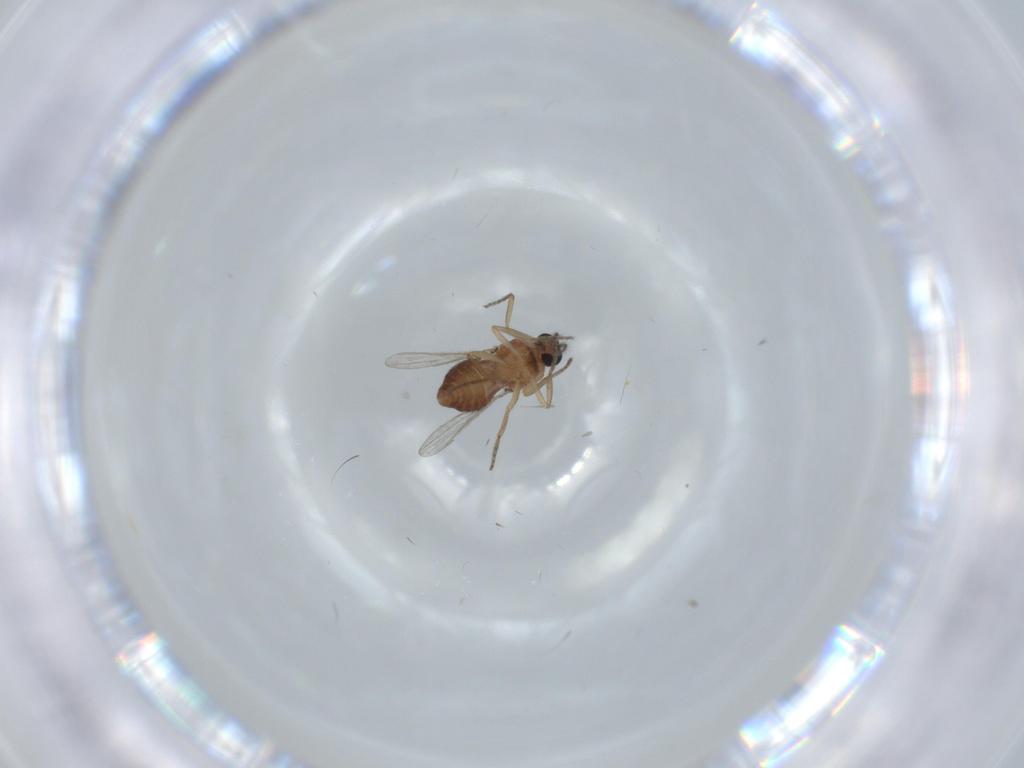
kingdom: Animalia
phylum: Arthropoda
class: Insecta
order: Diptera
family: Ceratopogonidae
